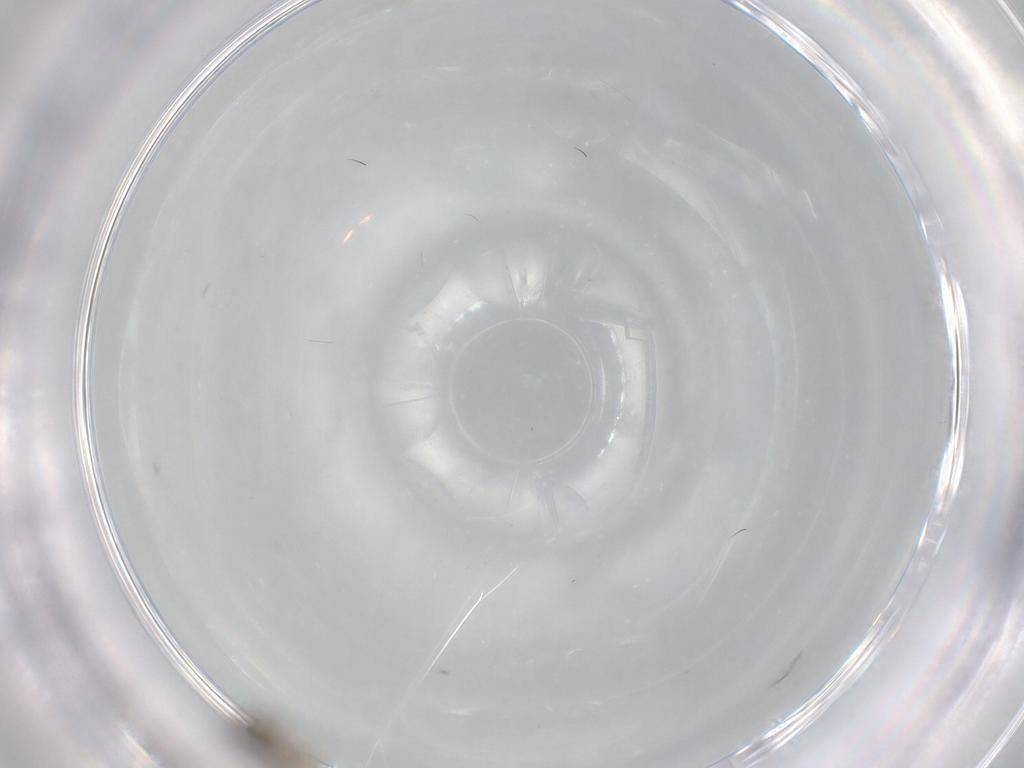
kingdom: Animalia
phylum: Arthropoda
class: Insecta
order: Diptera
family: Cecidomyiidae
